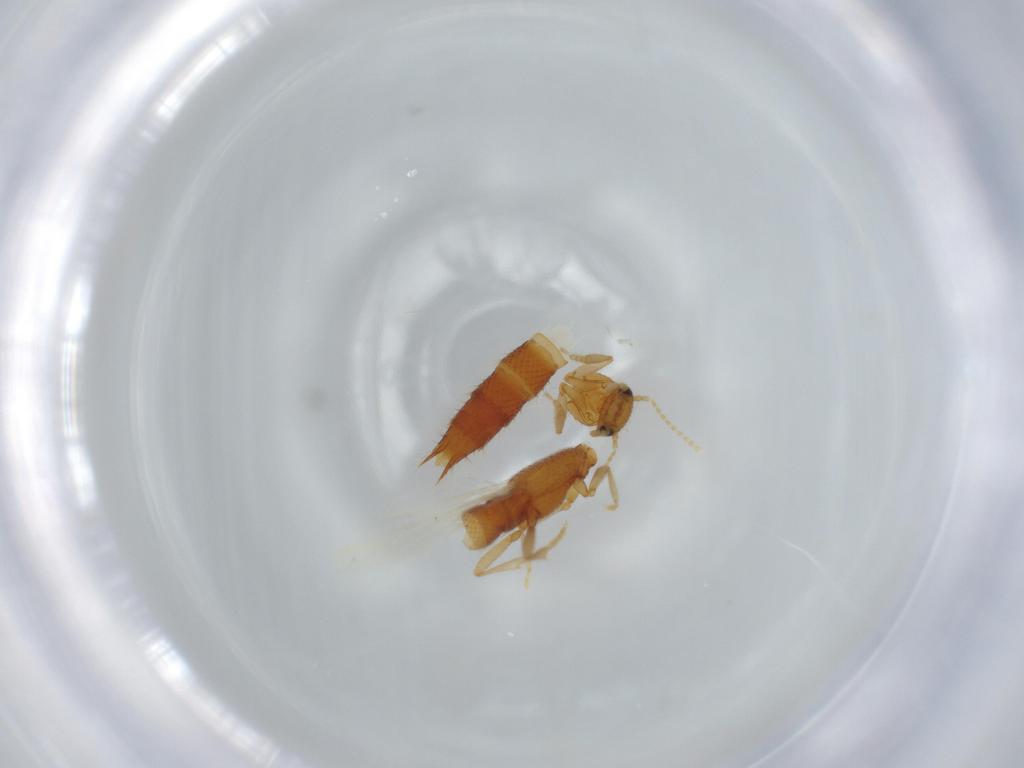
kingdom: Animalia
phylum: Arthropoda
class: Insecta
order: Coleoptera
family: Staphylinidae
